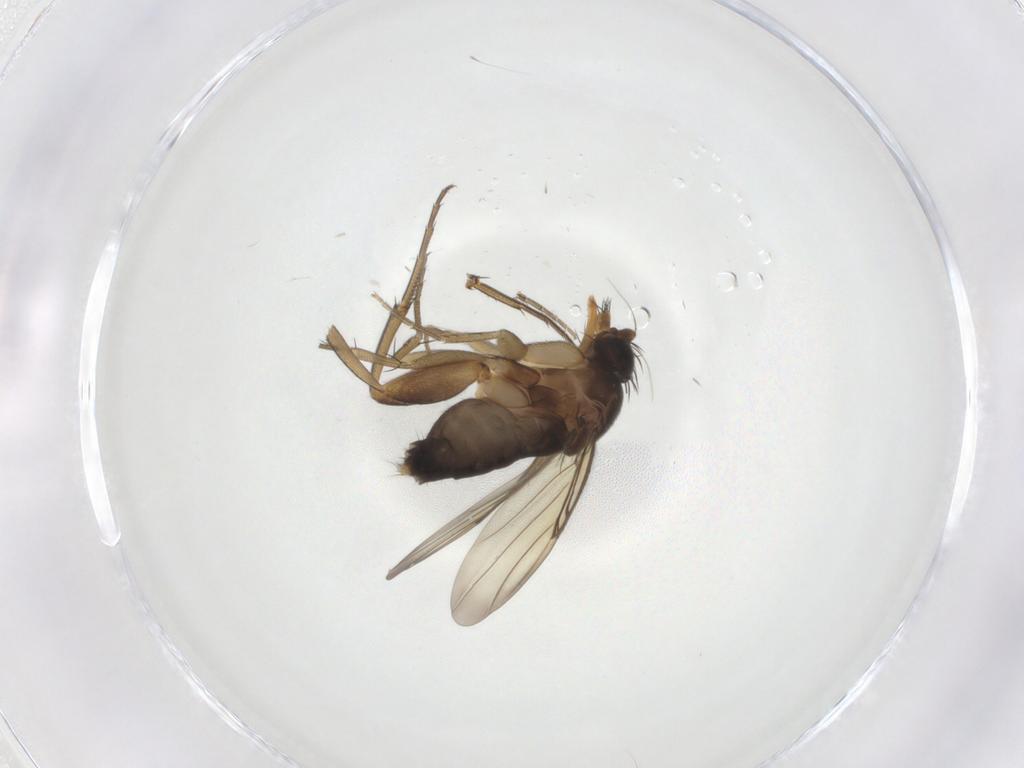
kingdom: Animalia
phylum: Arthropoda
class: Insecta
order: Diptera
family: Phoridae
